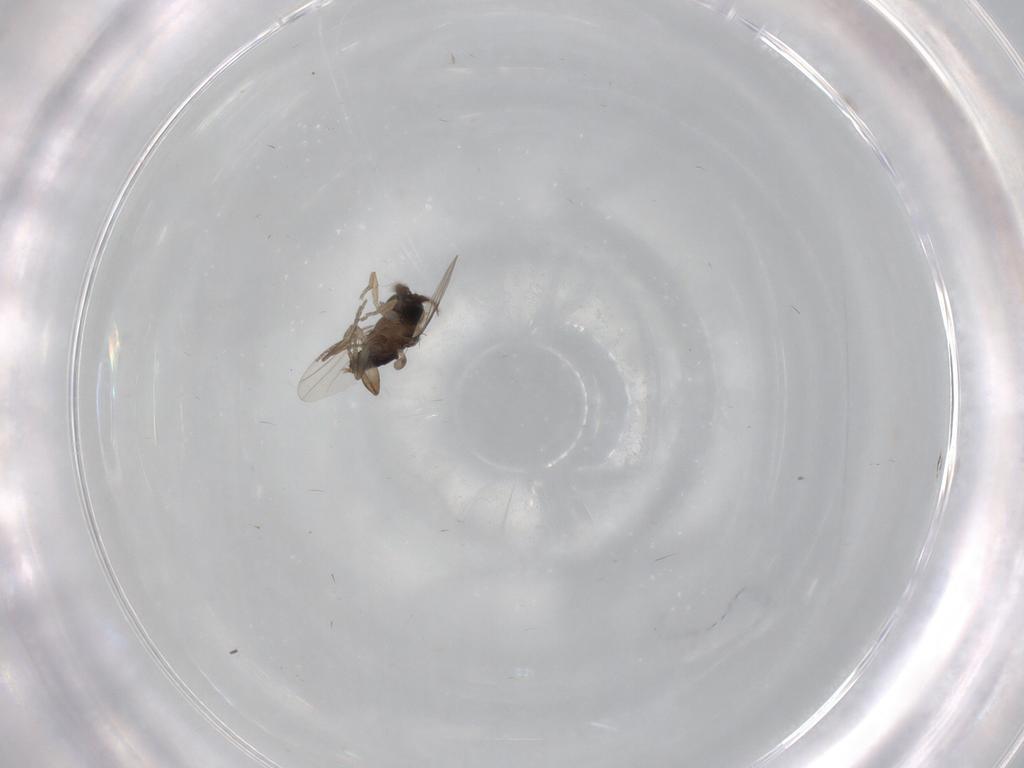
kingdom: Animalia
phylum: Arthropoda
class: Insecta
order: Diptera
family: Phoridae
